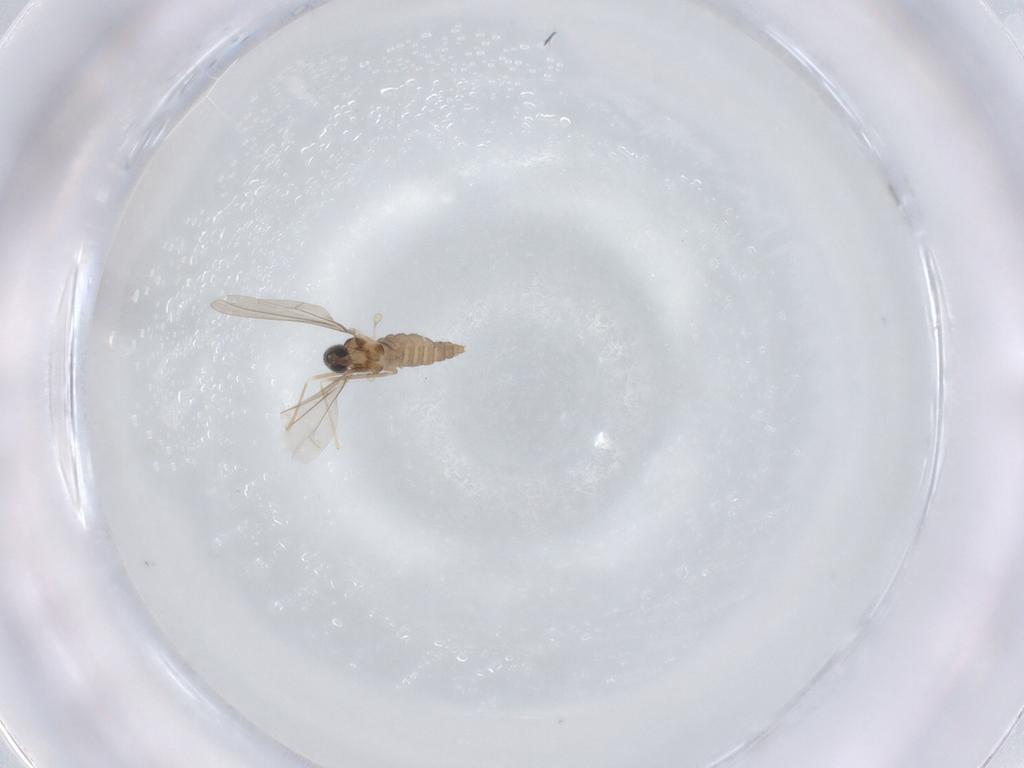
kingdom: Animalia
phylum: Arthropoda
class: Insecta
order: Diptera
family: Cecidomyiidae
